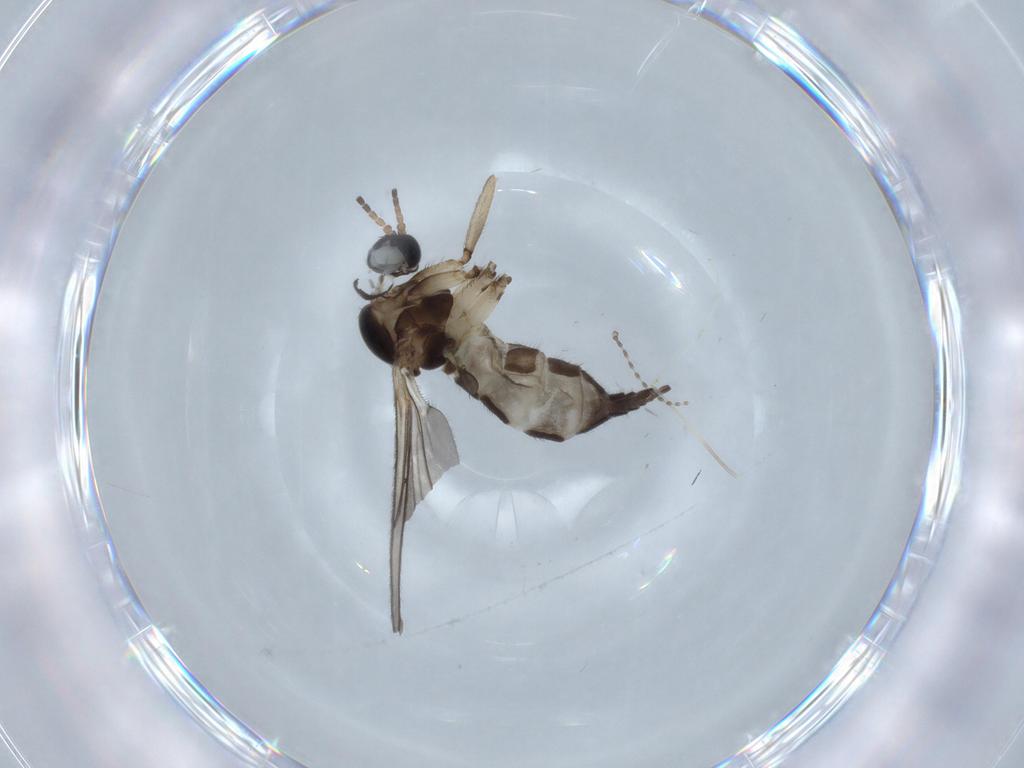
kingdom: Animalia
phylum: Arthropoda
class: Insecta
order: Diptera
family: Sciaridae
